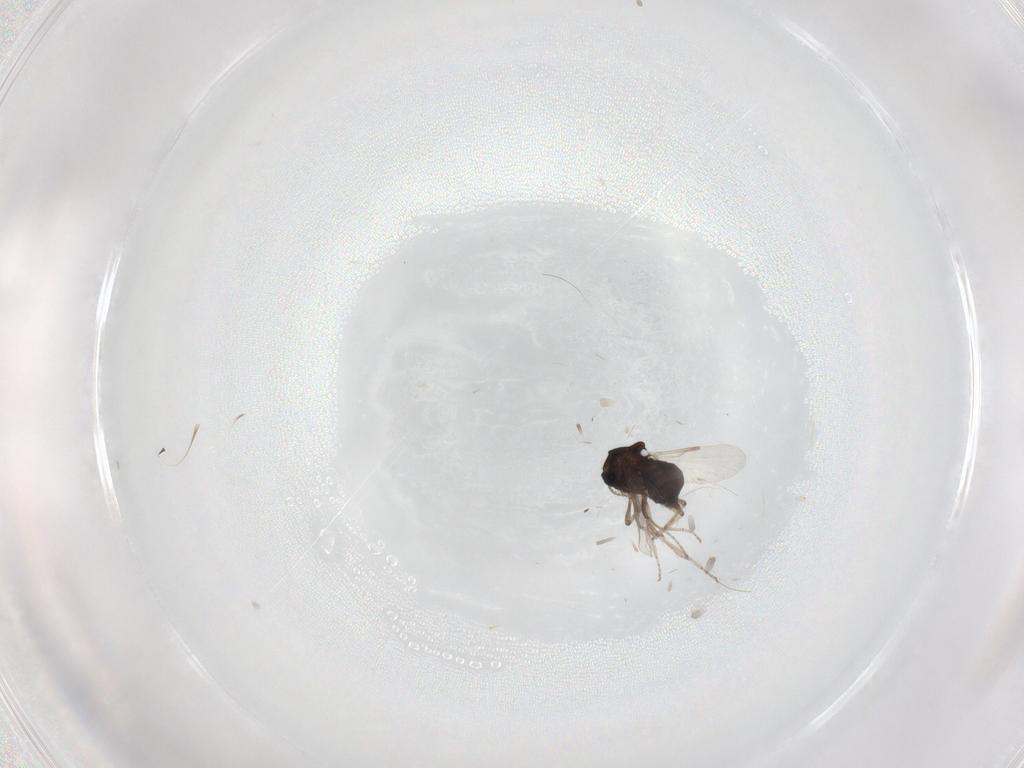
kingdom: Animalia
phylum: Arthropoda
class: Insecta
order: Diptera
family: Ceratopogonidae
